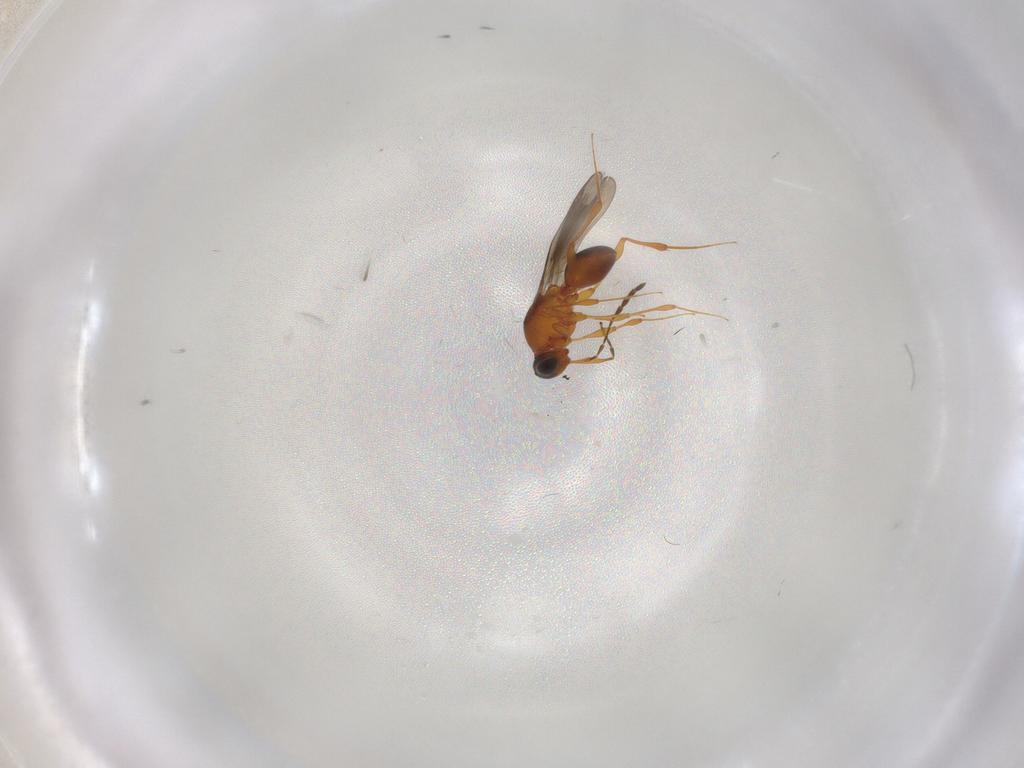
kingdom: Animalia
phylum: Arthropoda
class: Insecta
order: Hymenoptera
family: Platygastridae
